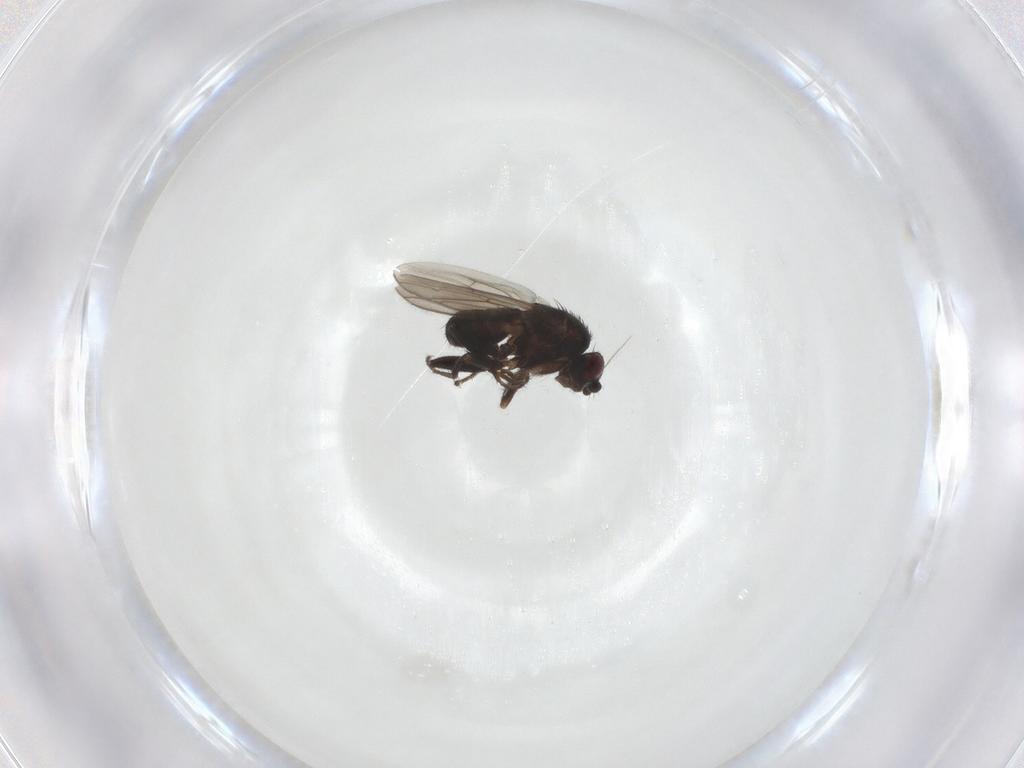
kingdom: Animalia
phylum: Arthropoda
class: Insecta
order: Diptera
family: Sphaeroceridae
